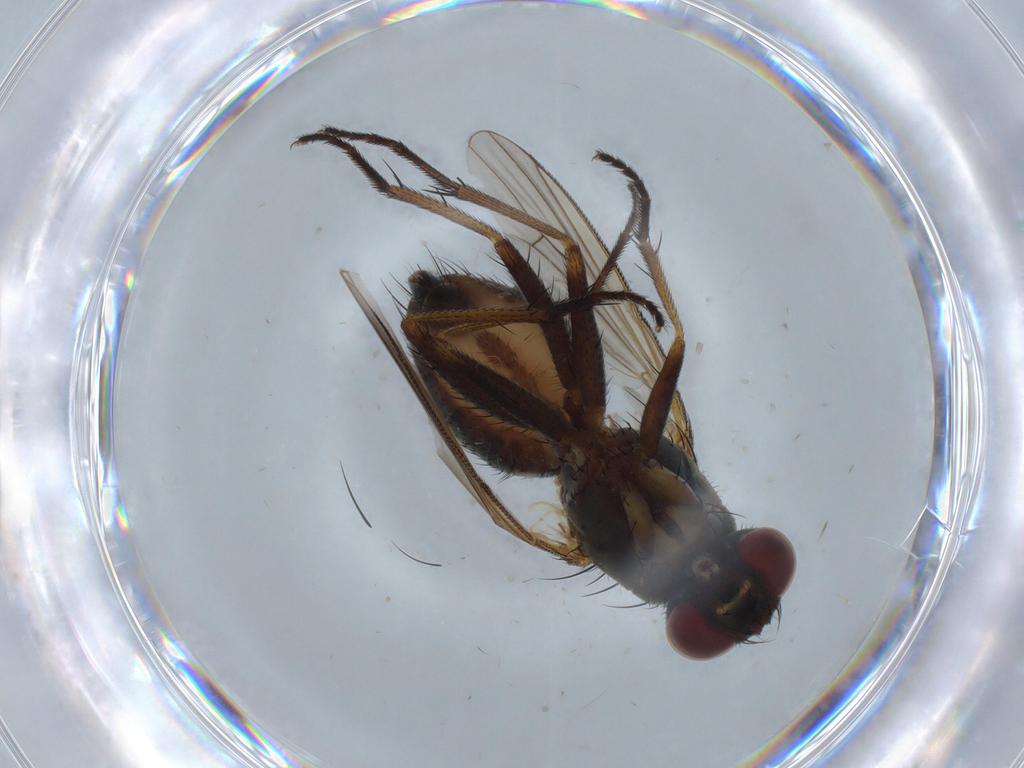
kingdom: Animalia
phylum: Arthropoda
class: Insecta
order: Diptera
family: Muscidae
